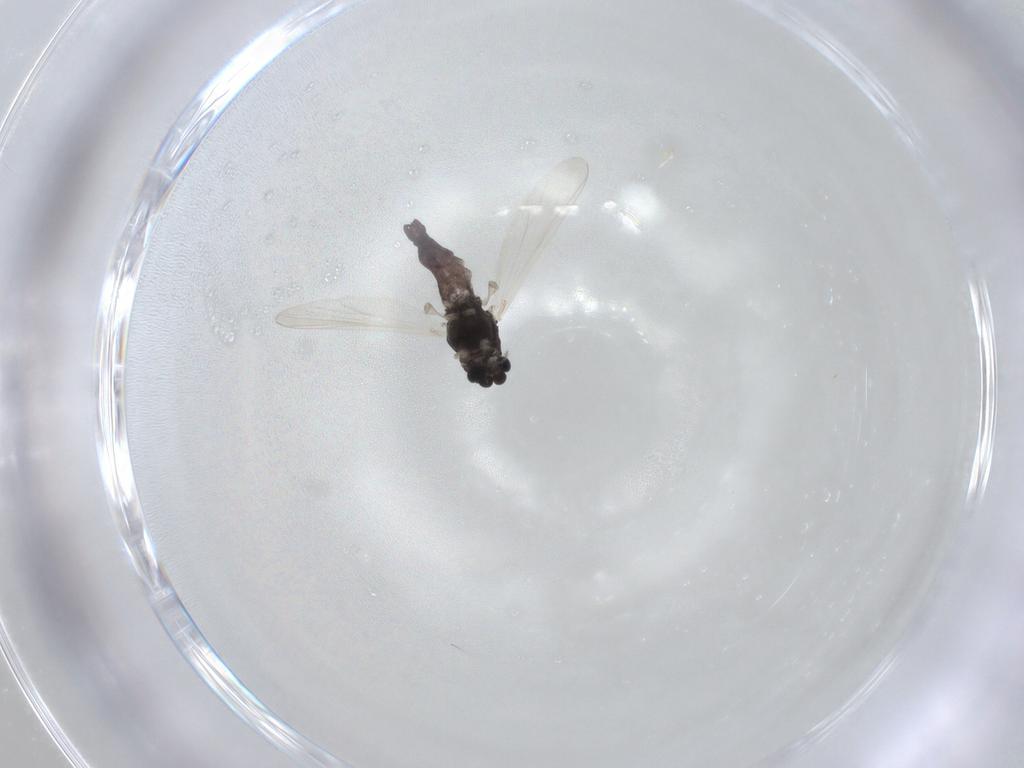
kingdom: Animalia
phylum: Arthropoda
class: Insecta
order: Diptera
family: Chironomidae
